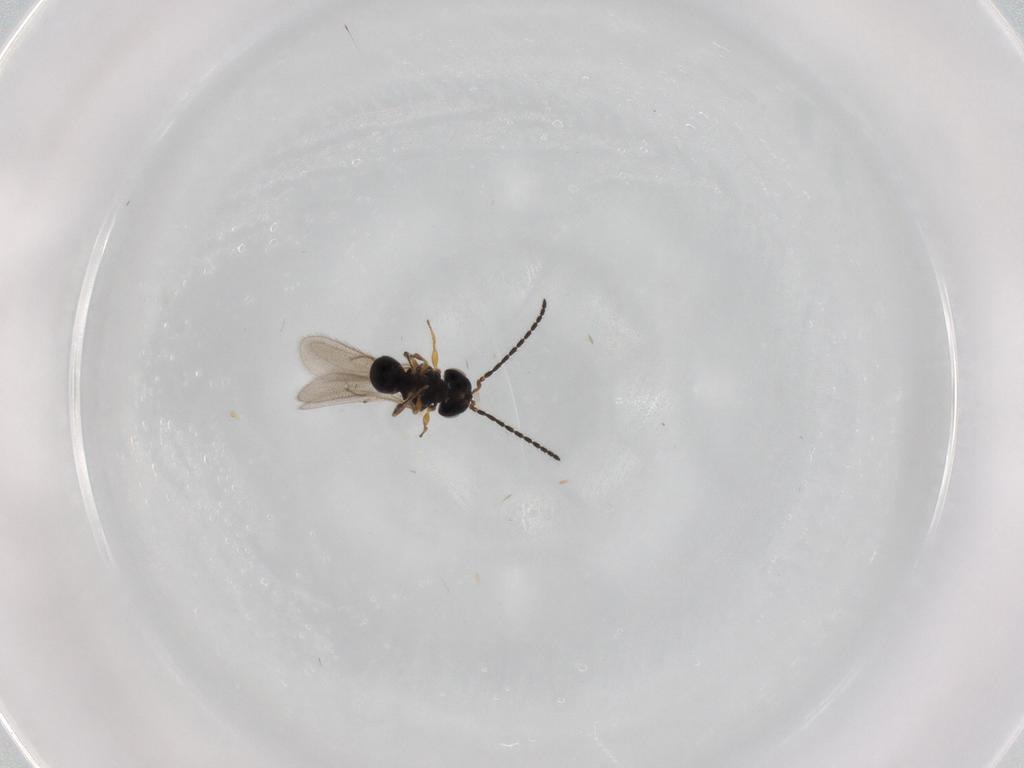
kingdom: Animalia
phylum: Arthropoda
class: Insecta
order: Hymenoptera
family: Scelionidae
